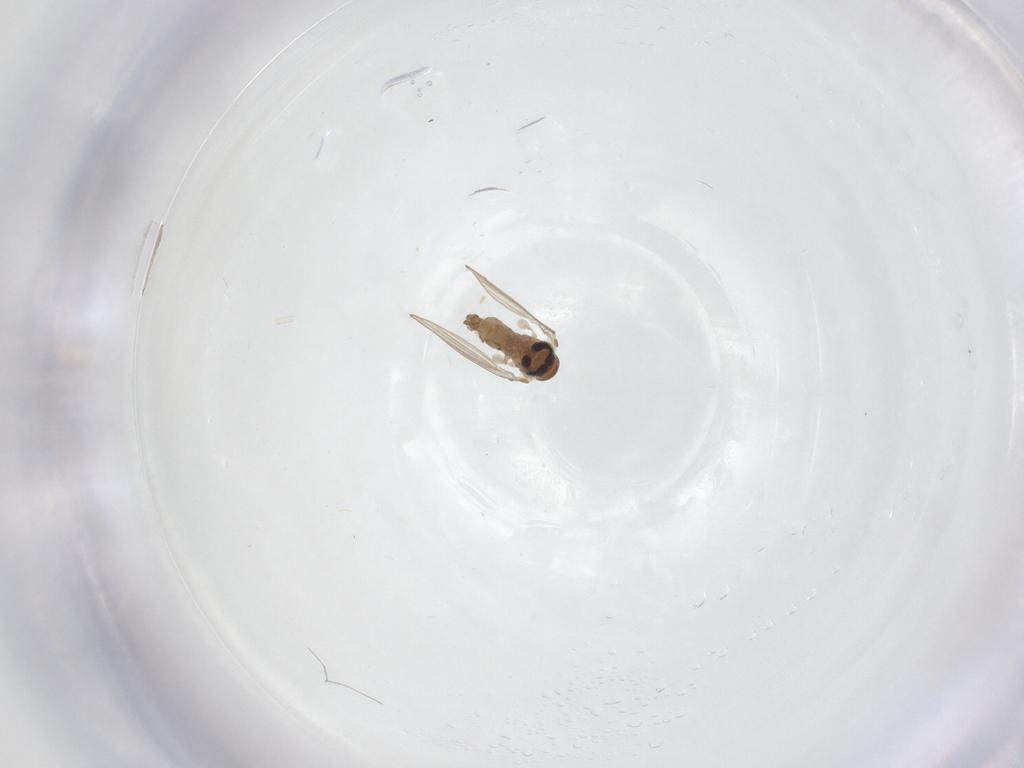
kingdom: Animalia
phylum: Arthropoda
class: Insecta
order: Diptera
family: Psychodidae
